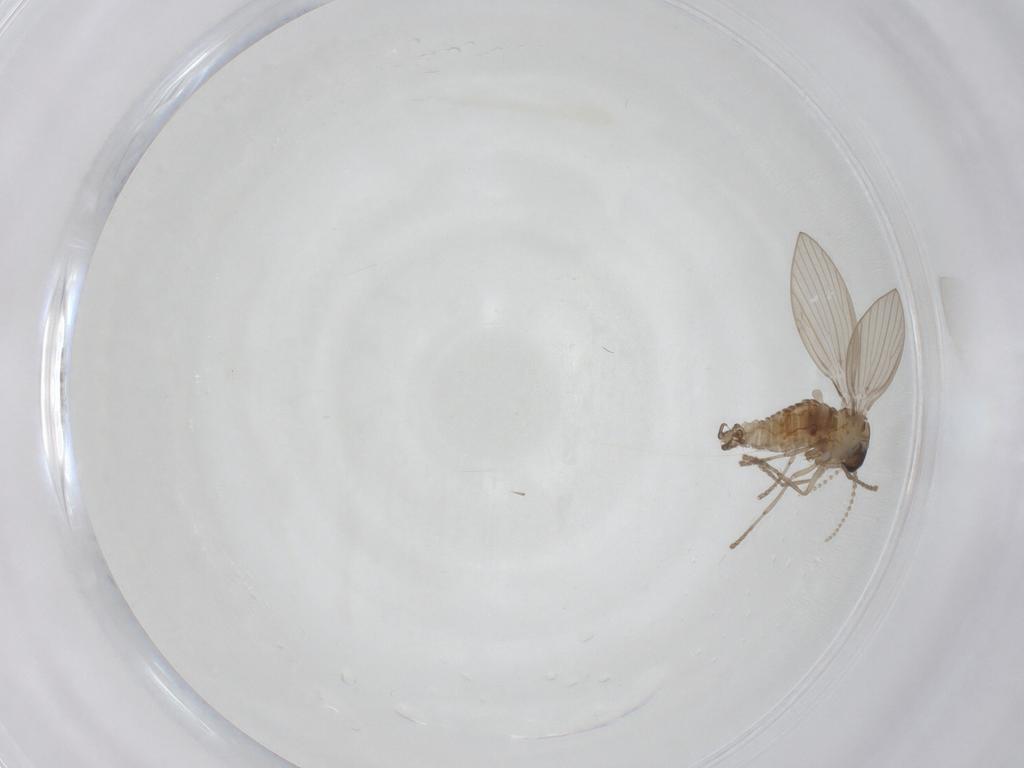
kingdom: Animalia
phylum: Arthropoda
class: Insecta
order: Diptera
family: Psychodidae
